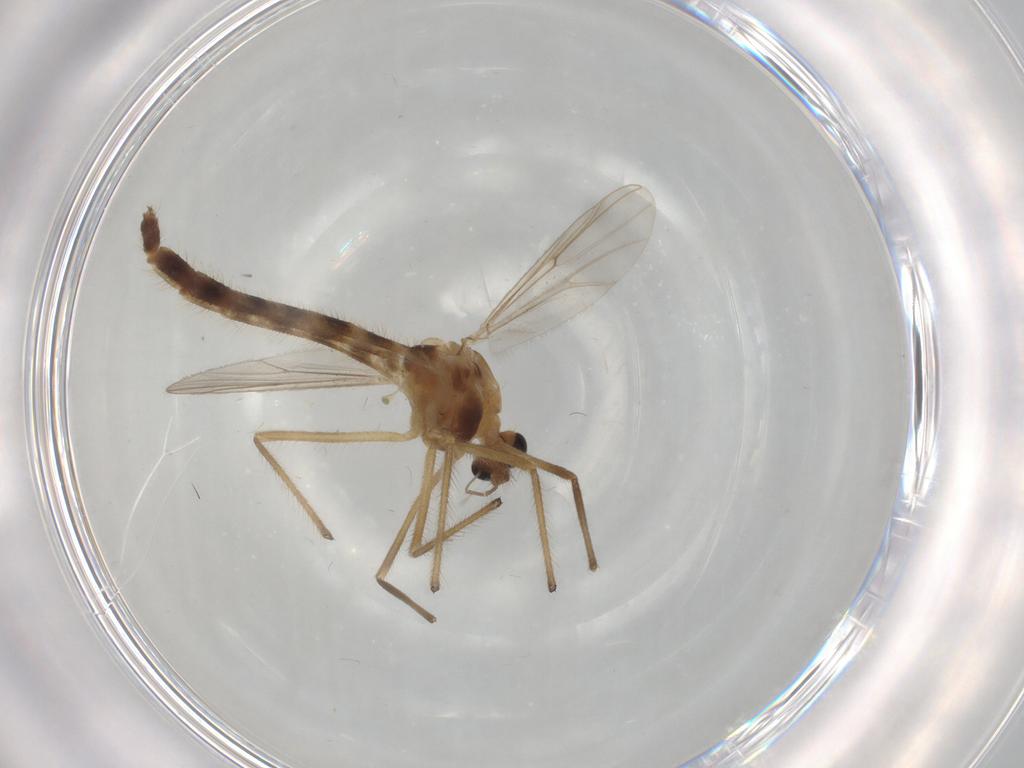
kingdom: Animalia
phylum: Arthropoda
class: Insecta
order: Diptera
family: Chironomidae
